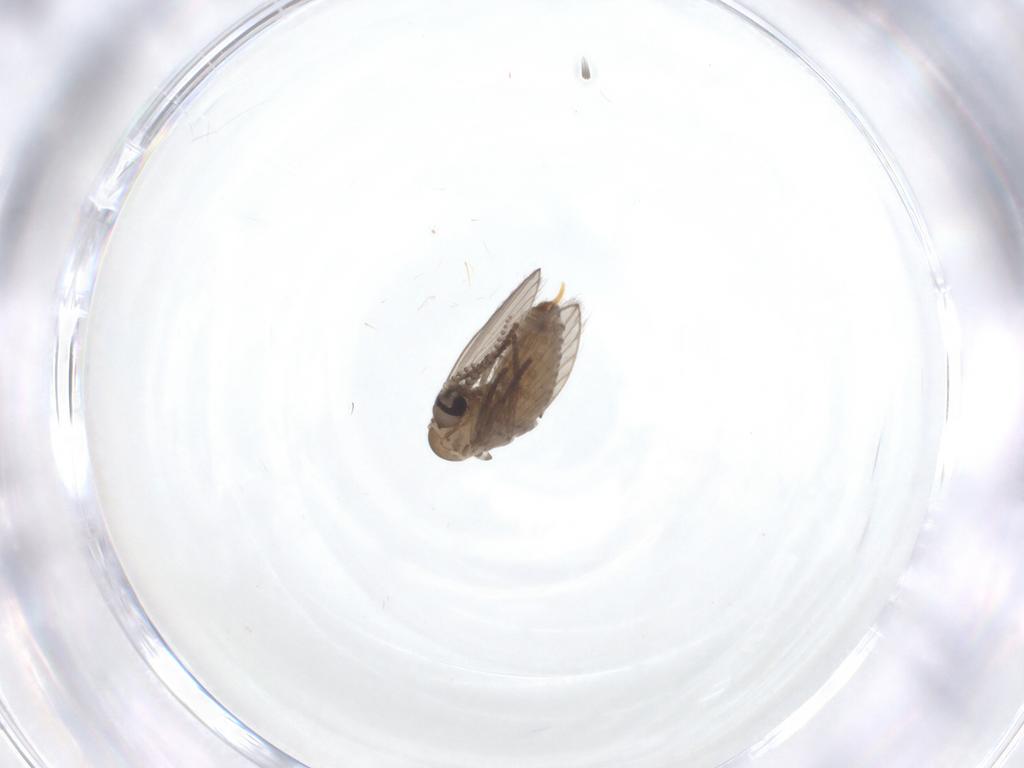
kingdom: Animalia
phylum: Arthropoda
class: Insecta
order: Diptera
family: Psychodidae
